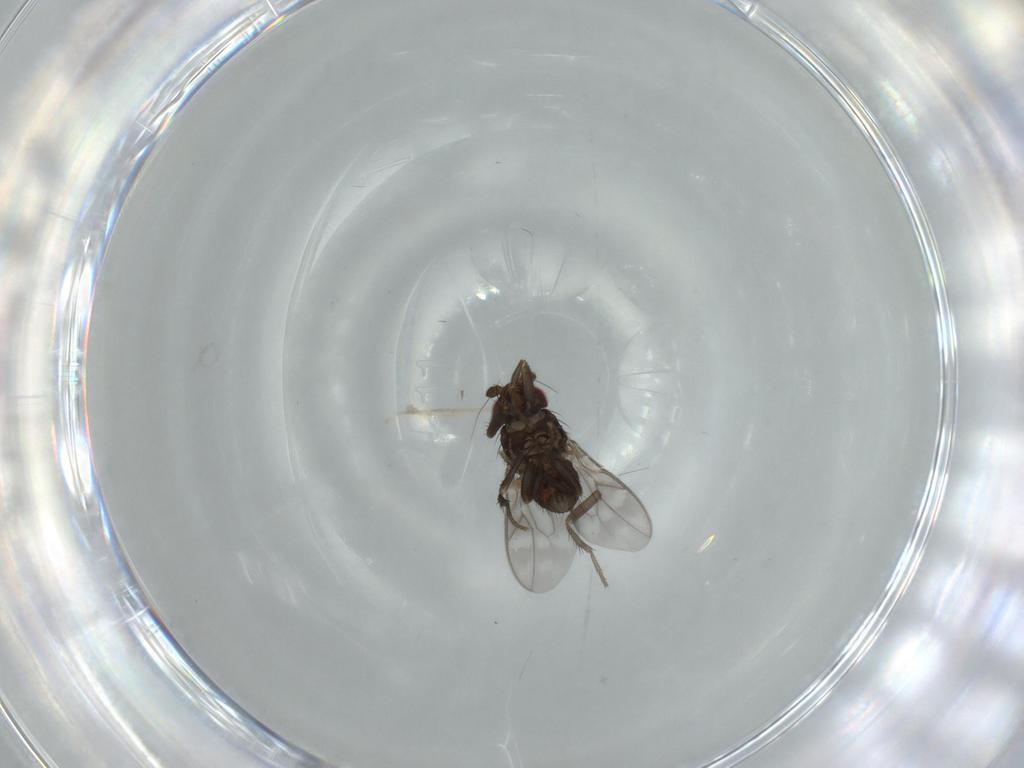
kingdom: Animalia
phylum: Arthropoda
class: Insecta
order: Diptera
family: Sphaeroceridae
